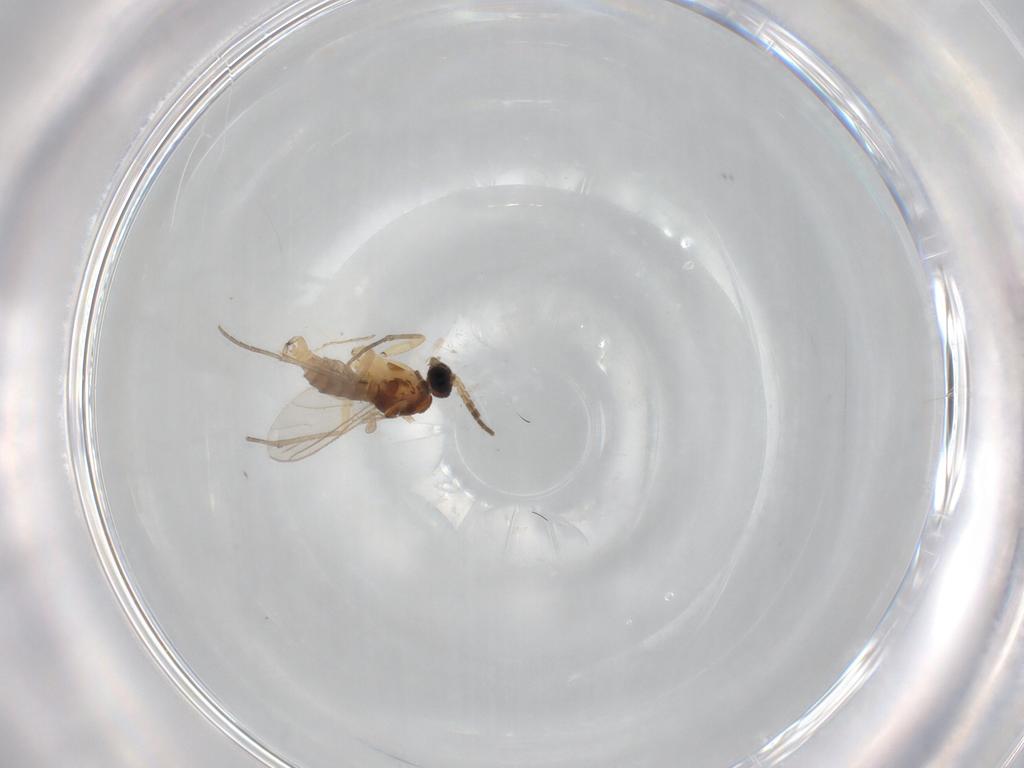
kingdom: Animalia
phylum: Arthropoda
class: Insecta
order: Diptera
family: Sciaridae
